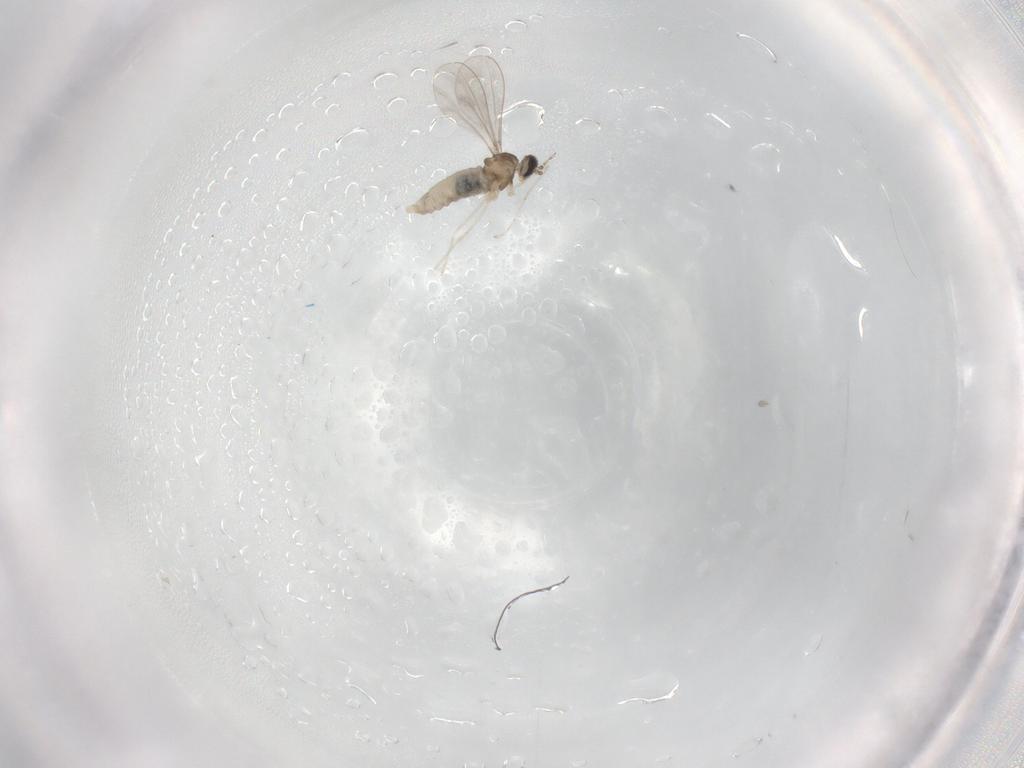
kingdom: Animalia
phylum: Arthropoda
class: Insecta
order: Diptera
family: Cecidomyiidae
